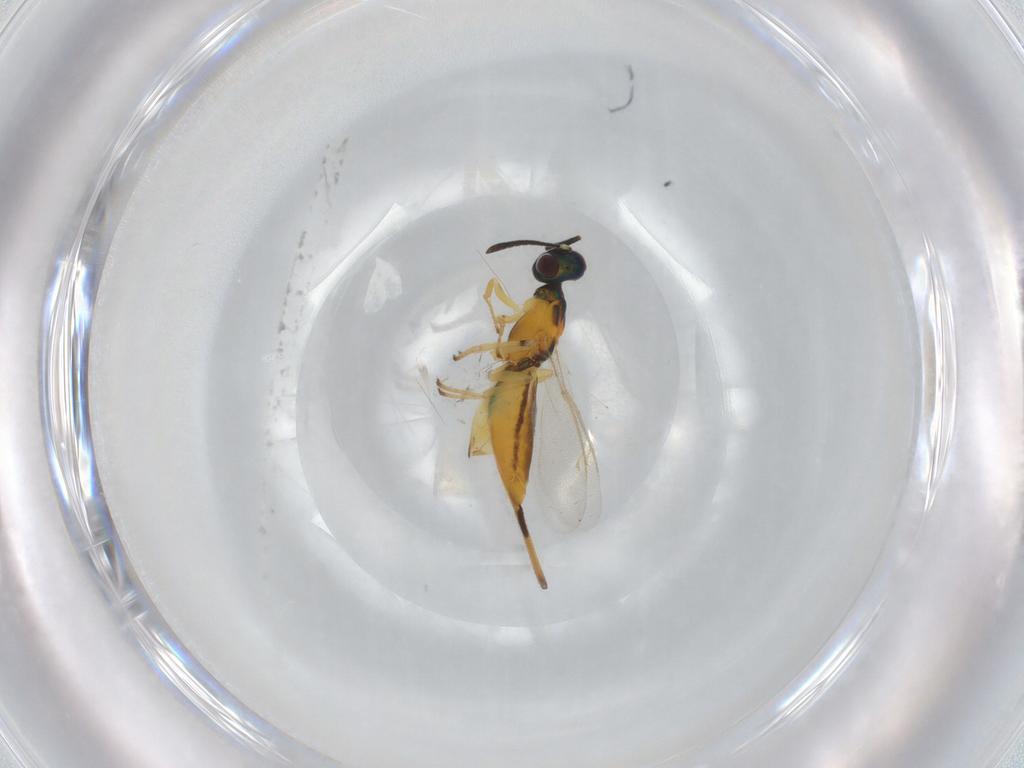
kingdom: Animalia
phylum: Arthropoda
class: Insecta
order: Hymenoptera
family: Eupelmidae
